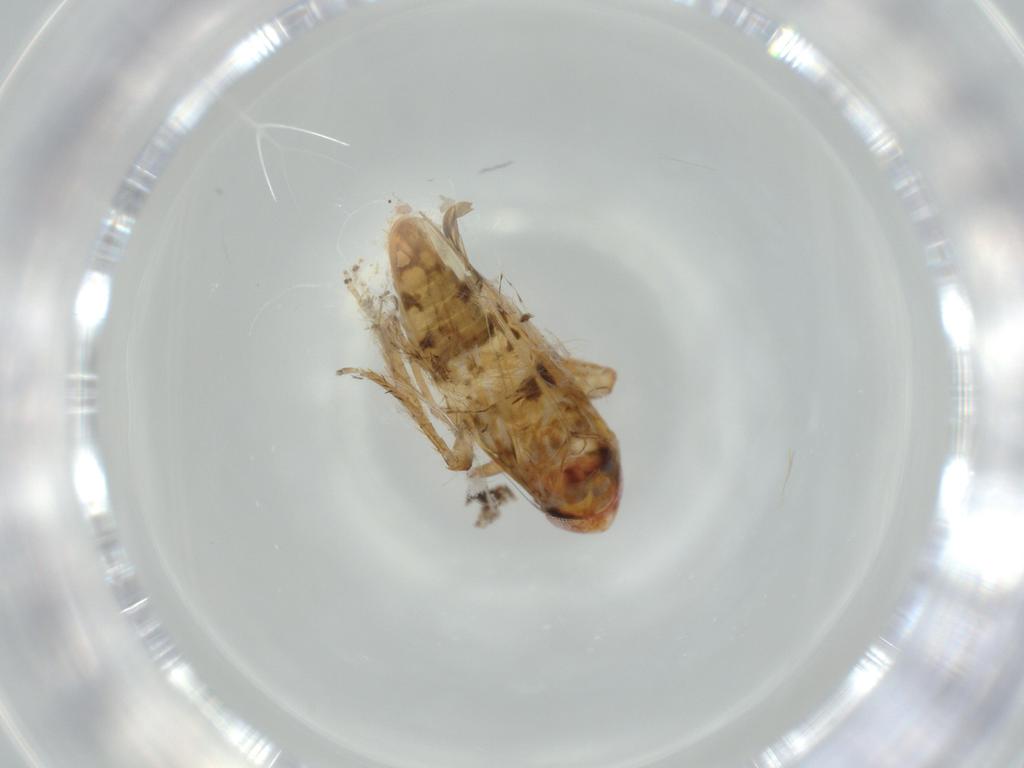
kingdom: Animalia
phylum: Arthropoda
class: Insecta
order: Hemiptera
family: Cicadellidae
